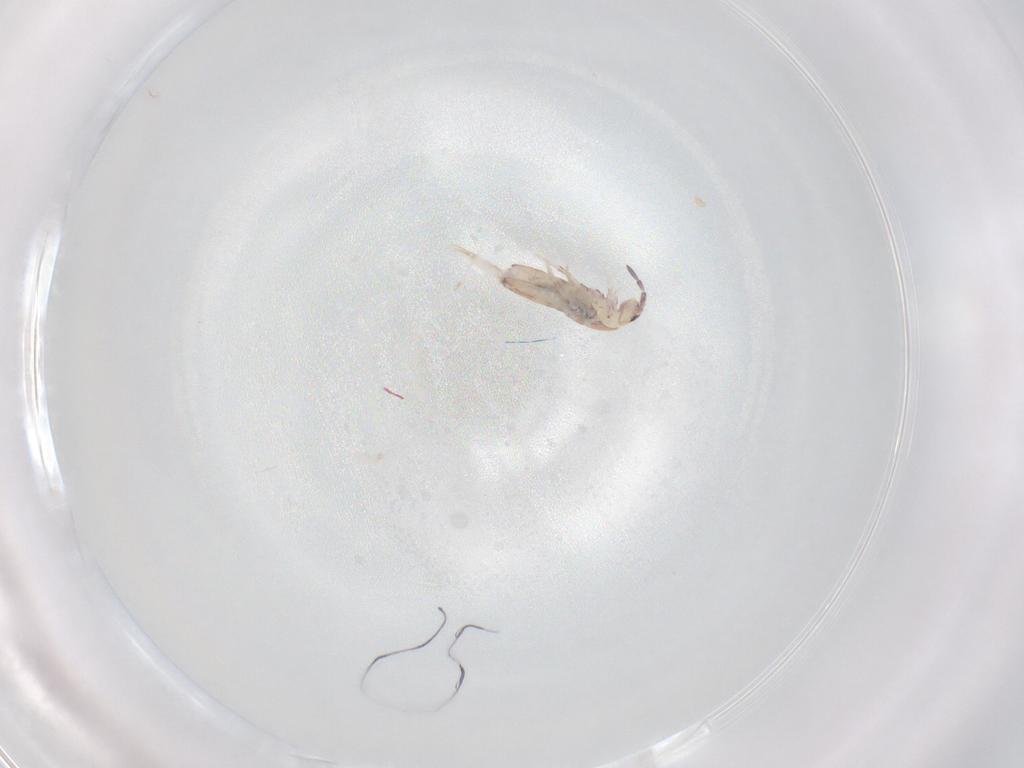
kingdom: Animalia
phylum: Arthropoda
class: Collembola
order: Entomobryomorpha
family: Entomobryidae
